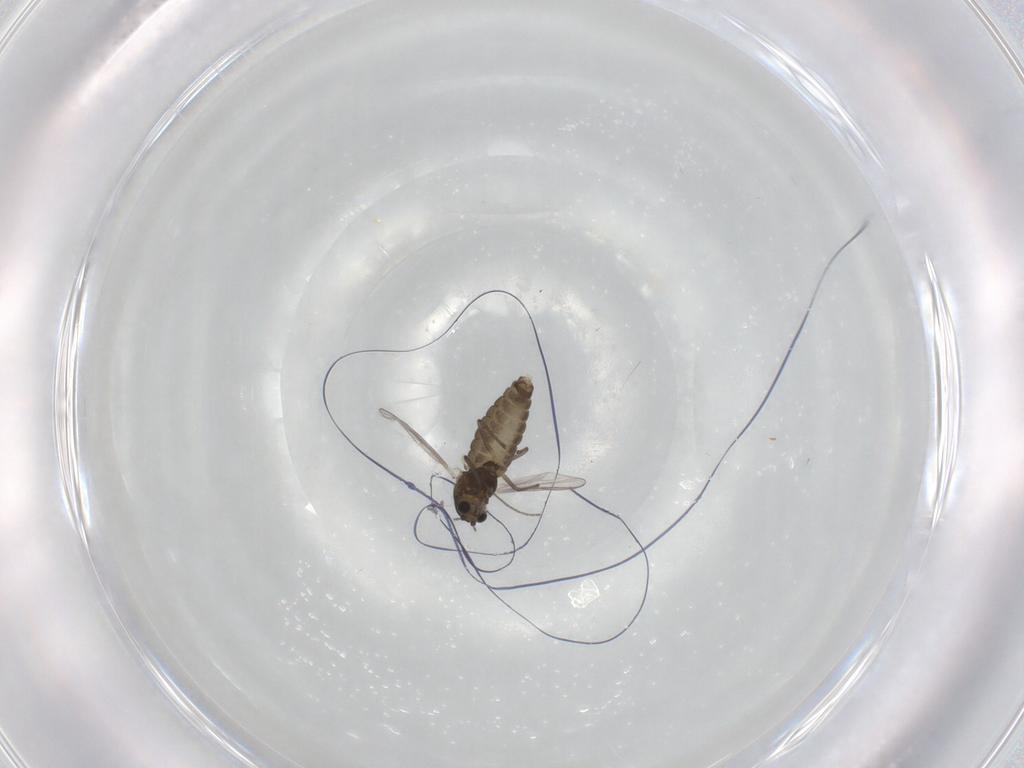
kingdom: Animalia
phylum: Arthropoda
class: Insecta
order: Diptera
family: Chironomidae
